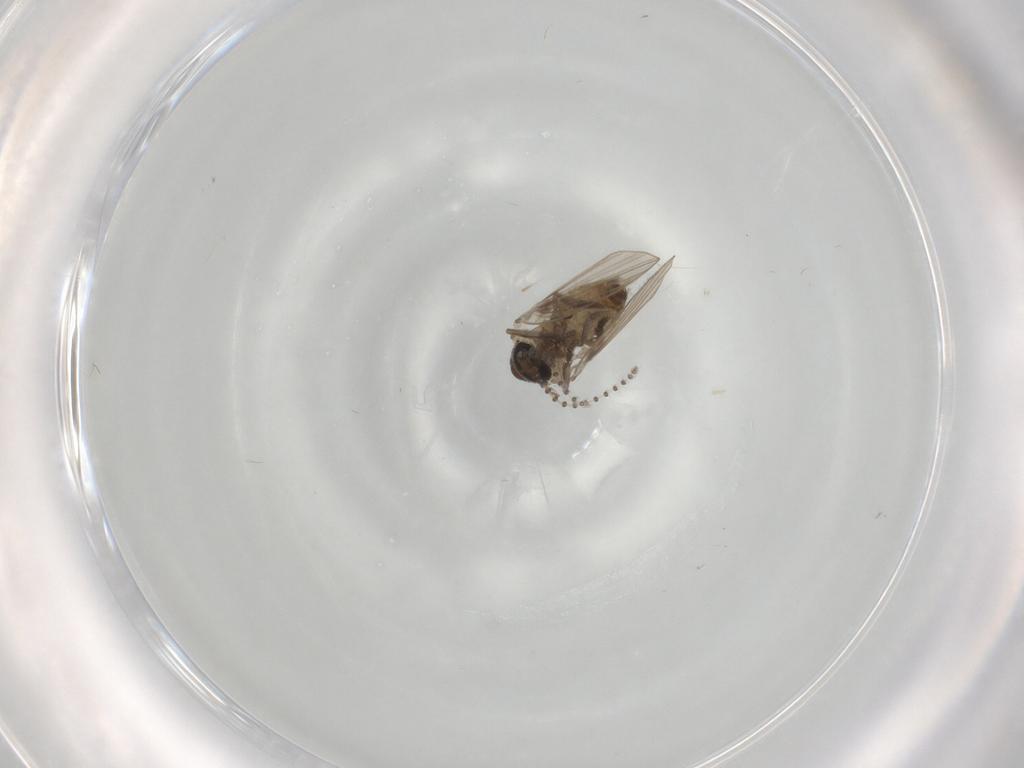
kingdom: Animalia
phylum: Arthropoda
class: Insecta
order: Diptera
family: Psychodidae
